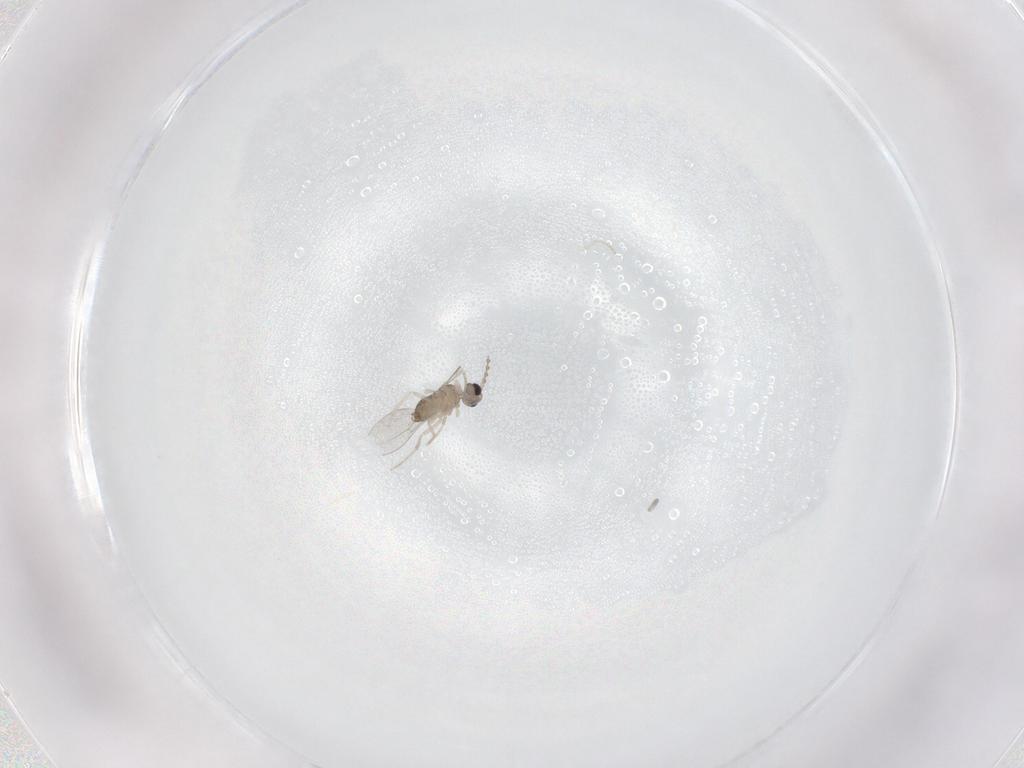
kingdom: Animalia
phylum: Arthropoda
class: Insecta
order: Diptera
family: Cecidomyiidae
